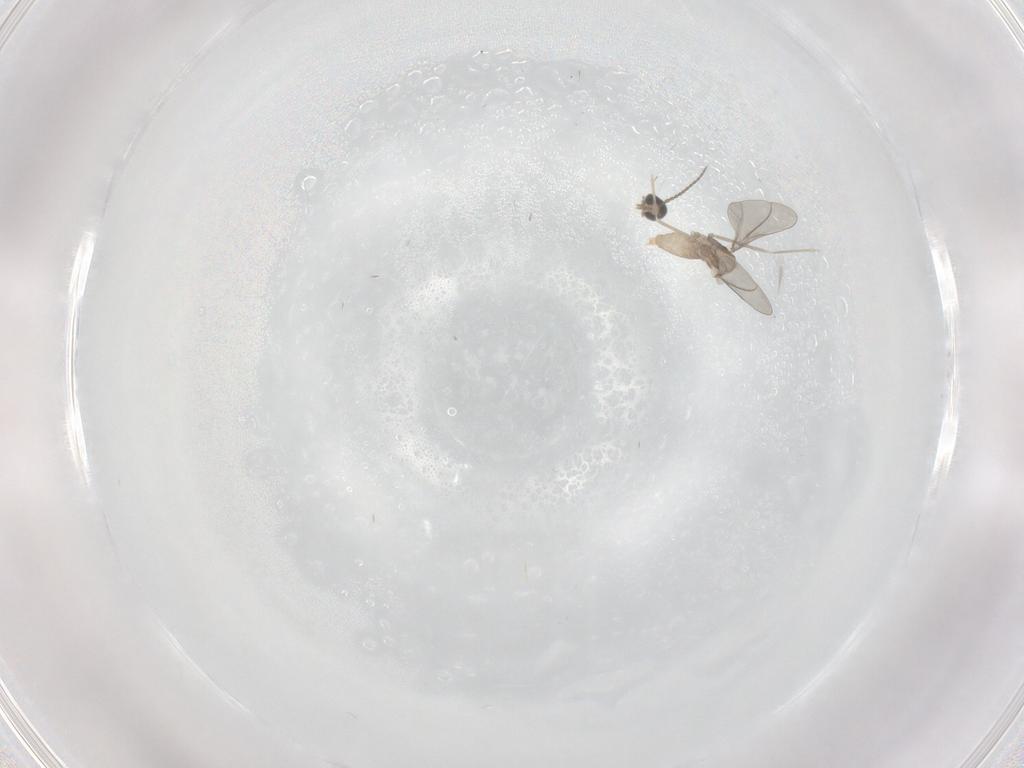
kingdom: Animalia
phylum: Arthropoda
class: Insecta
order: Diptera
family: Cecidomyiidae
